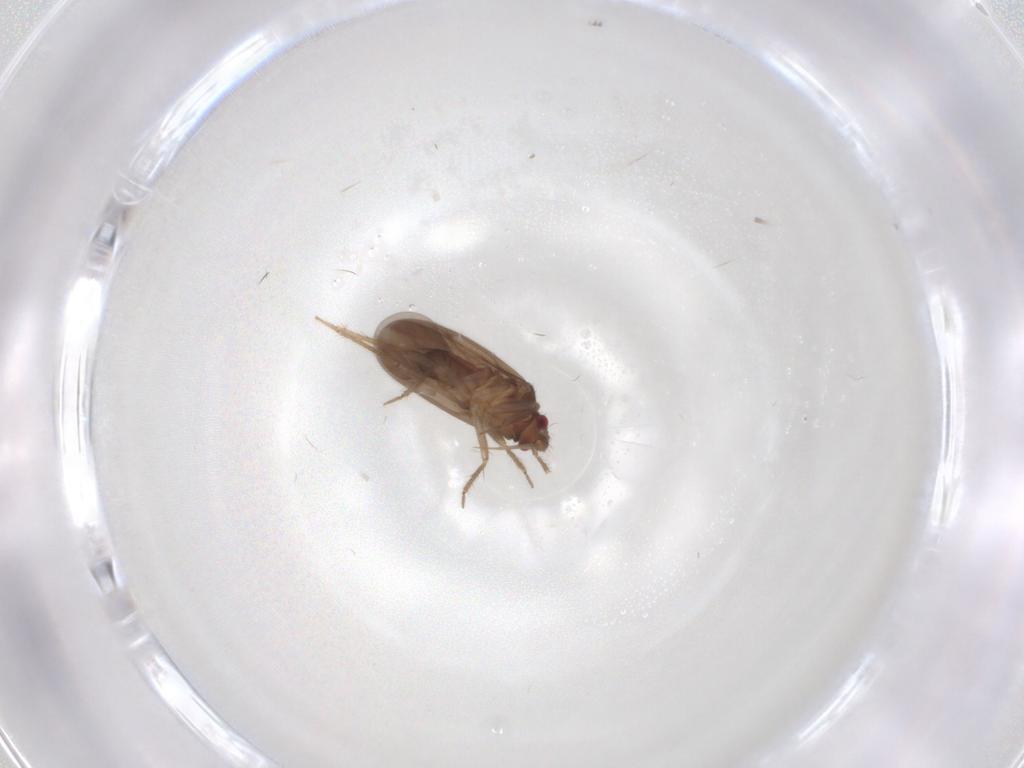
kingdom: Animalia
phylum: Arthropoda
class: Insecta
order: Hemiptera
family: Ceratocombidae
